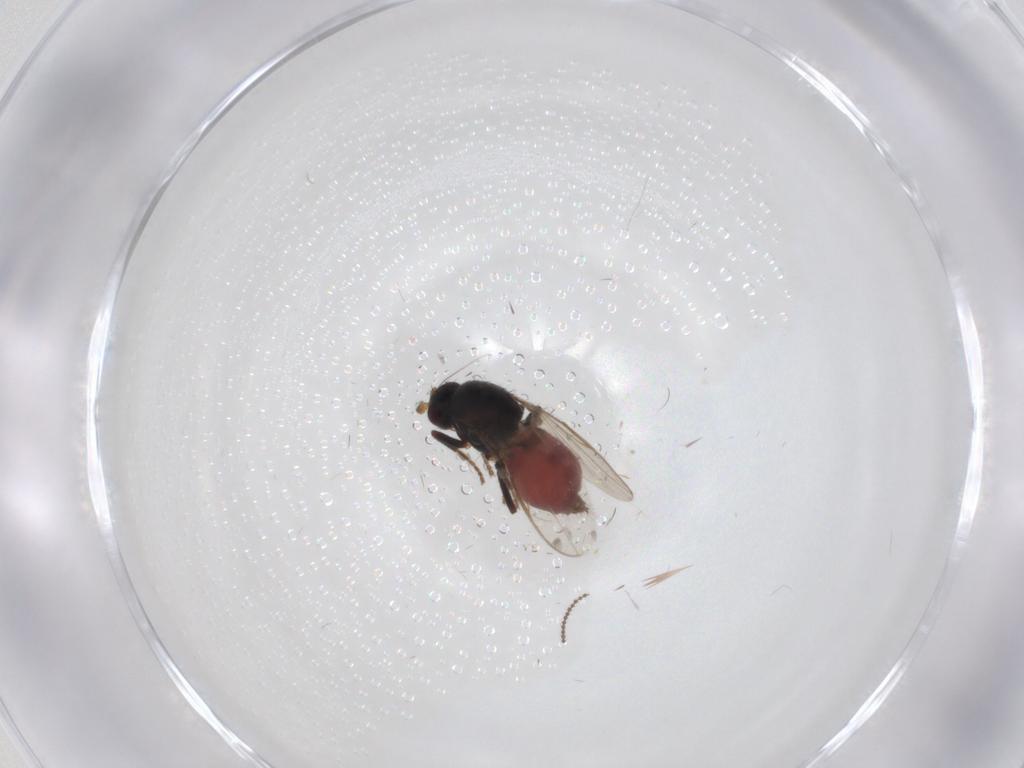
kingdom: Animalia
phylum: Arthropoda
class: Insecta
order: Diptera
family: Sphaeroceridae
